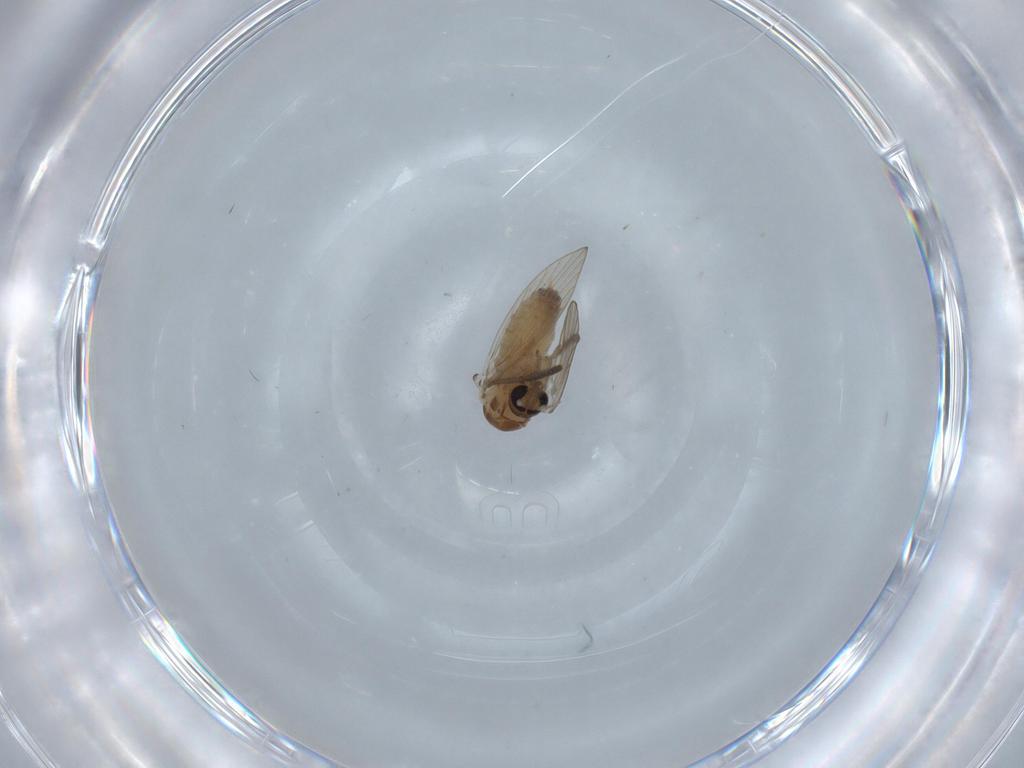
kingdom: Animalia
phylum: Arthropoda
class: Insecta
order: Diptera
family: Psychodidae
